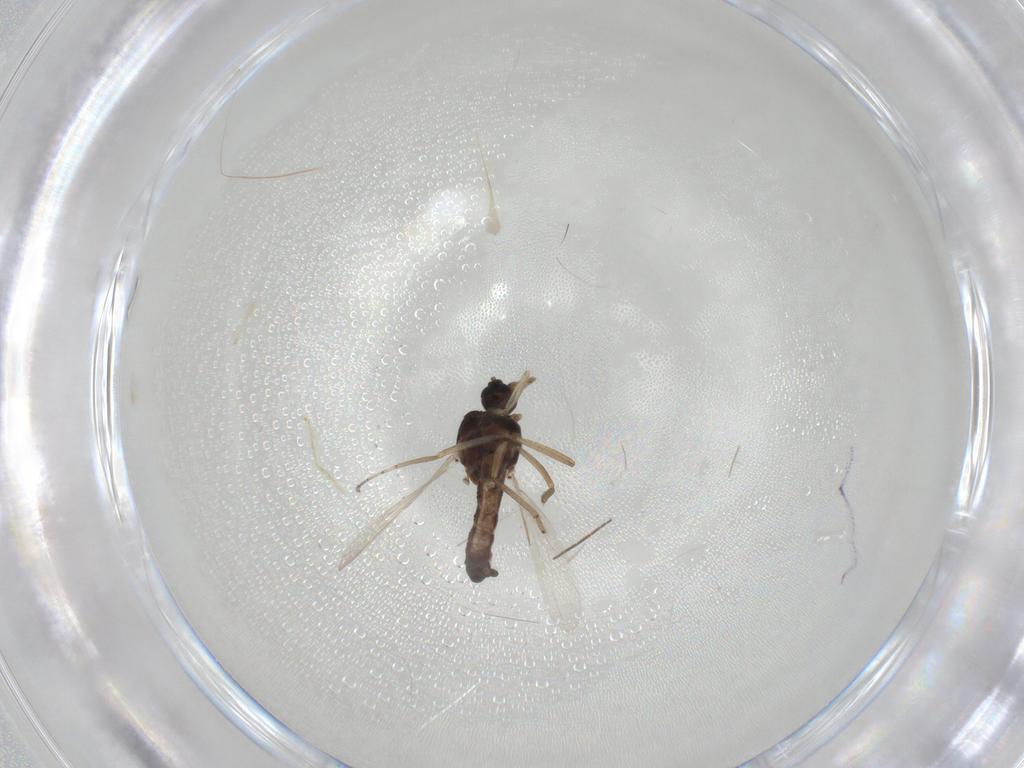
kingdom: Animalia
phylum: Arthropoda
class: Insecta
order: Diptera
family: Ceratopogonidae
